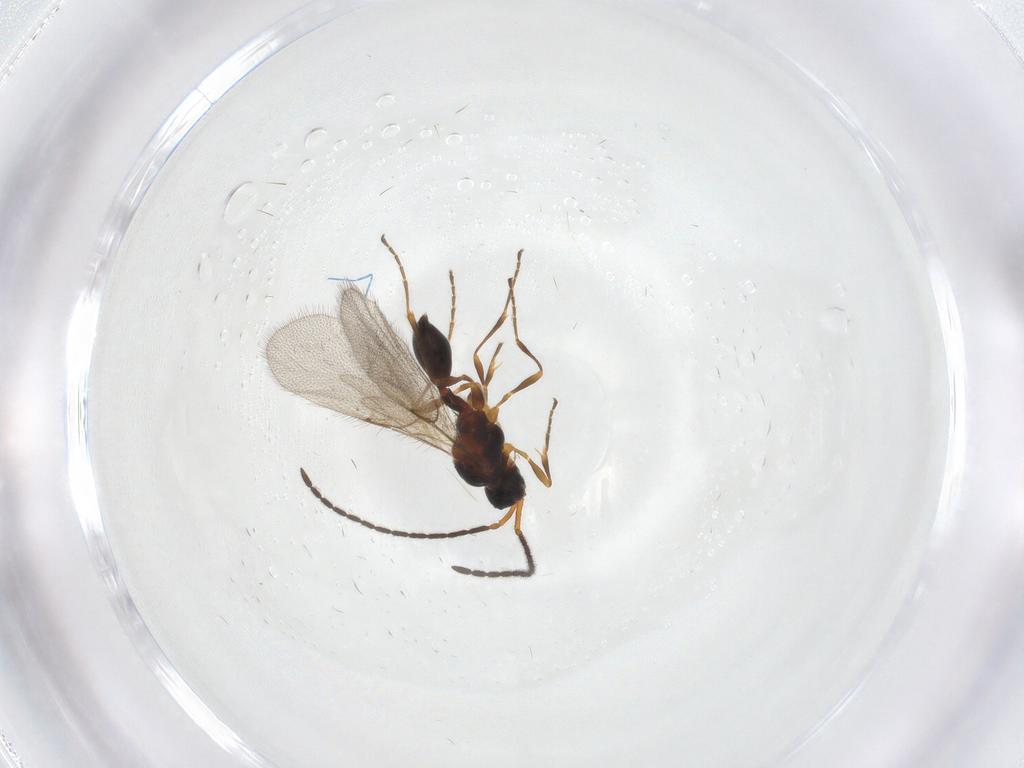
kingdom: Animalia
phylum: Arthropoda
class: Insecta
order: Hymenoptera
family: Diapriidae
